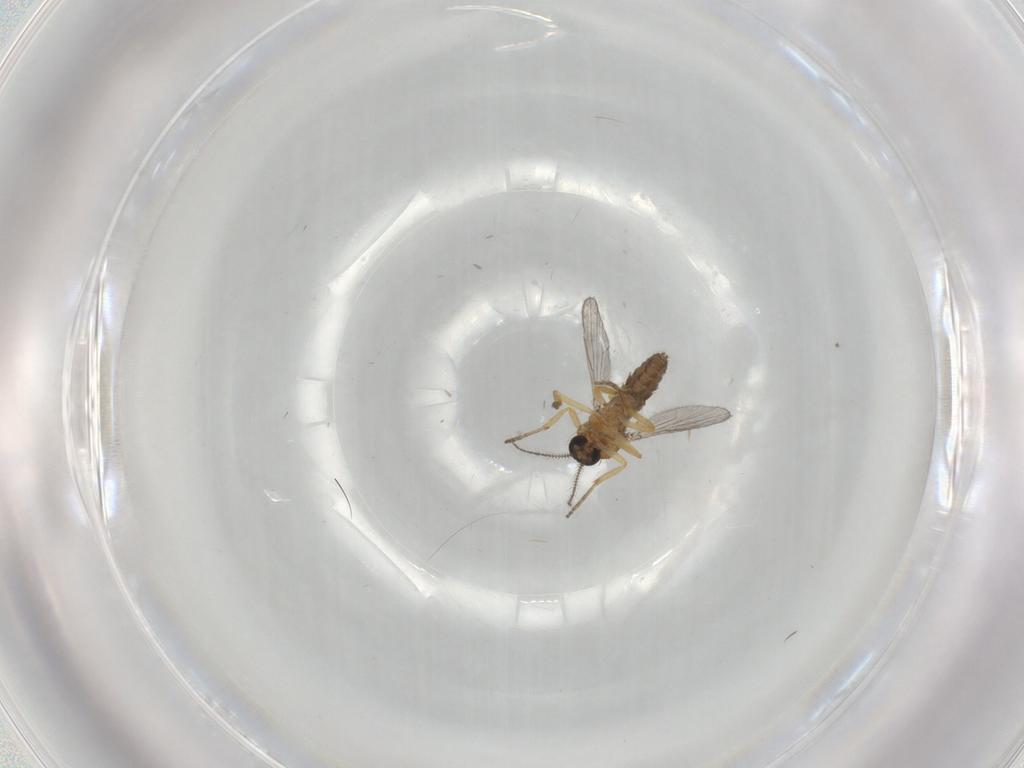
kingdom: Animalia
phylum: Arthropoda
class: Insecta
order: Diptera
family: Ceratopogonidae
